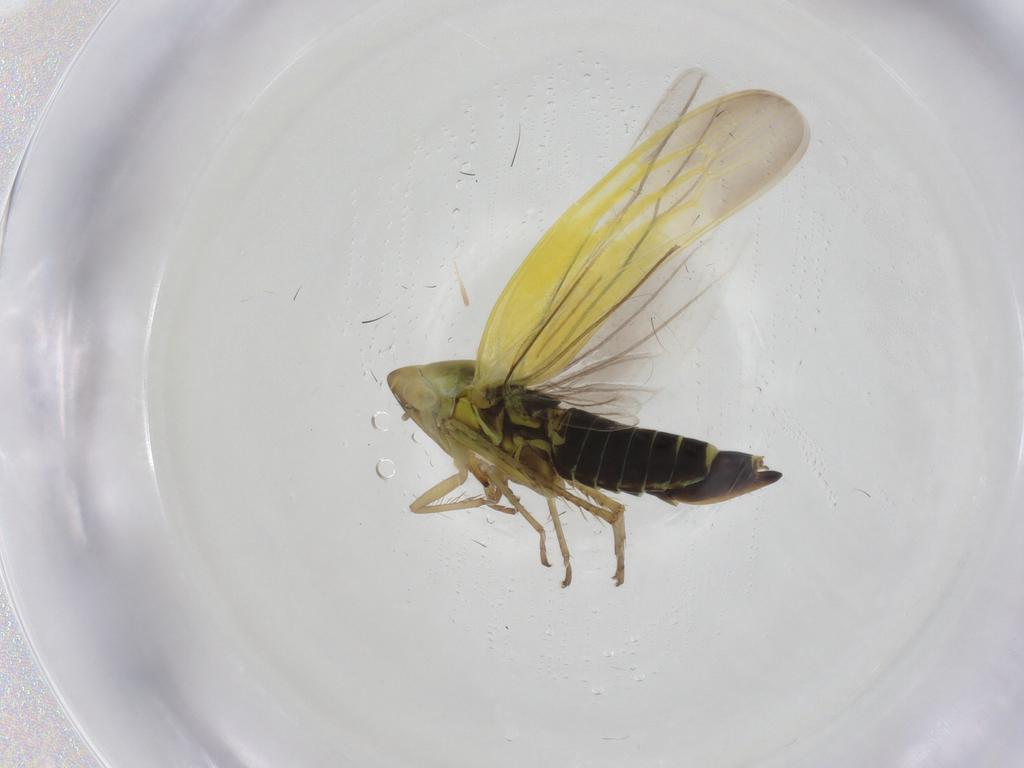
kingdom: Animalia
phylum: Arthropoda
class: Insecta
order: Hemiptera
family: Cicadellidae
